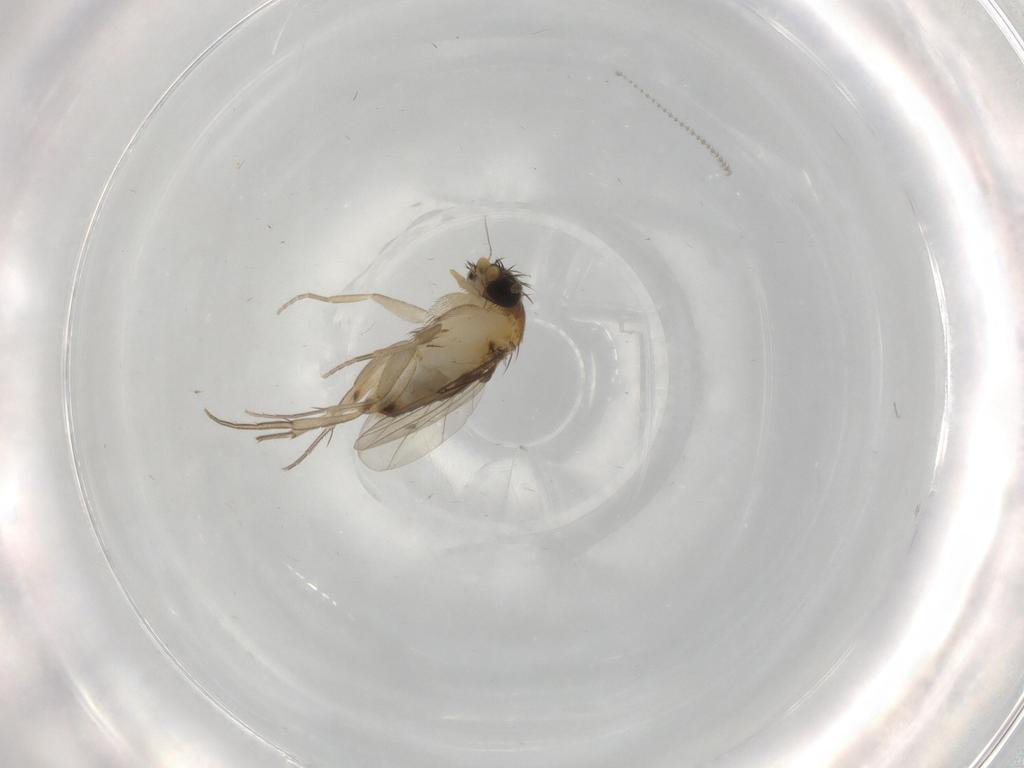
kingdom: Animalia
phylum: Arthropoda
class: Insecta
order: Diptera
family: Phoridae
